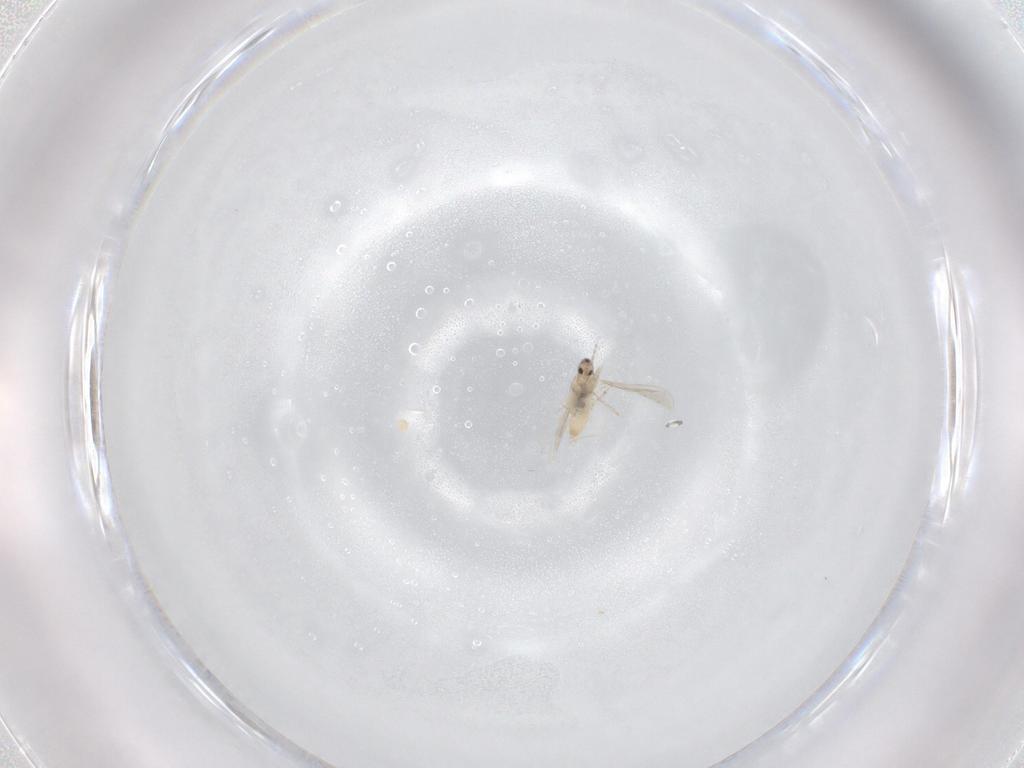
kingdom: Animalia
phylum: Arthropoda
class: Insecta
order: Diptera
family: Cecidomyiidae
